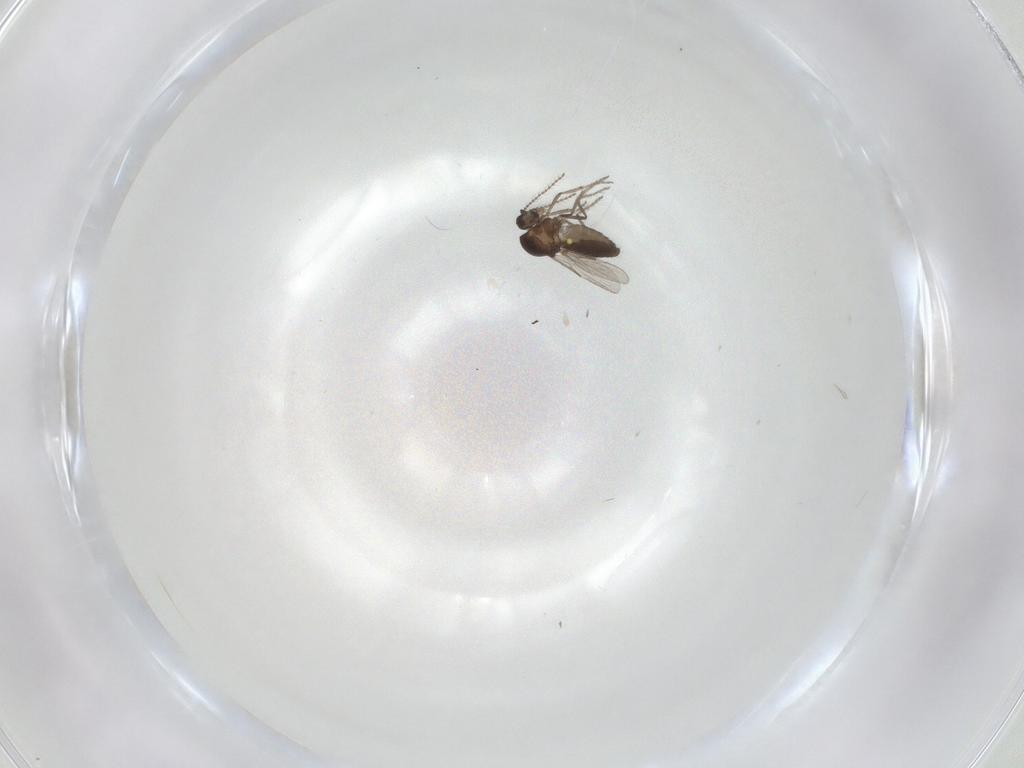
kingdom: Animalia
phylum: Arthropoda
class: Insecta
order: Diptera
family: Ceratopogonidae
